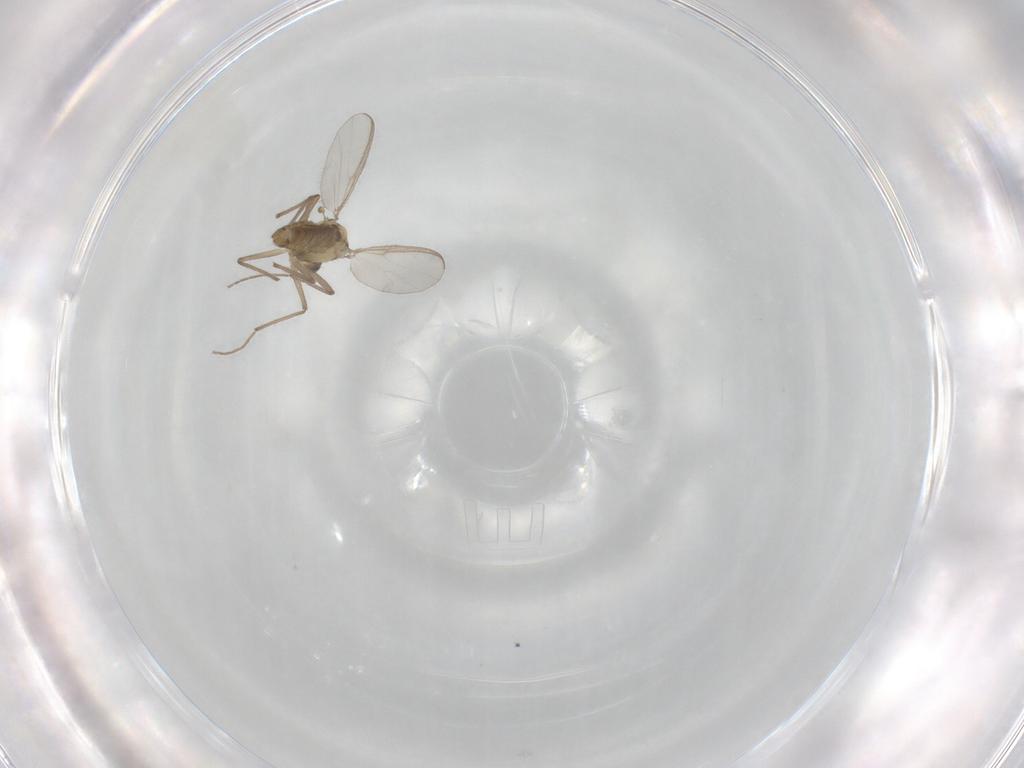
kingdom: Animalia
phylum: Arthropoda
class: Insecta
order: Diptera
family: Chironomidae
